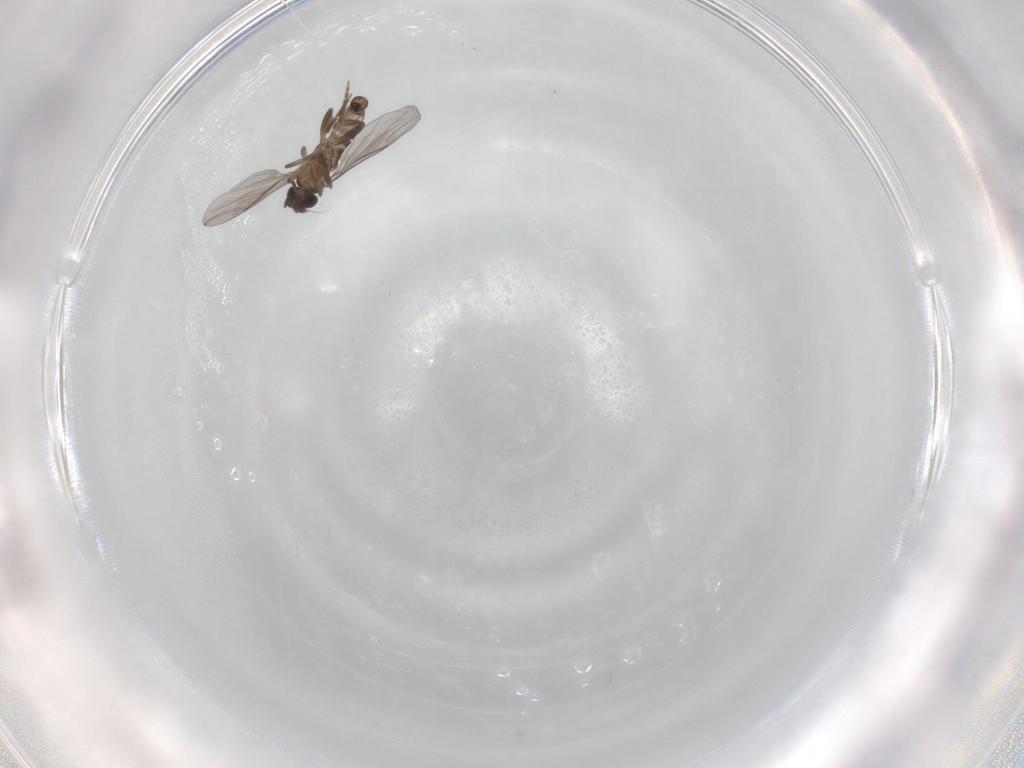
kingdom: Animalia
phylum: Arthropoda
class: Insecta
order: Diptera
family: Phoridae
